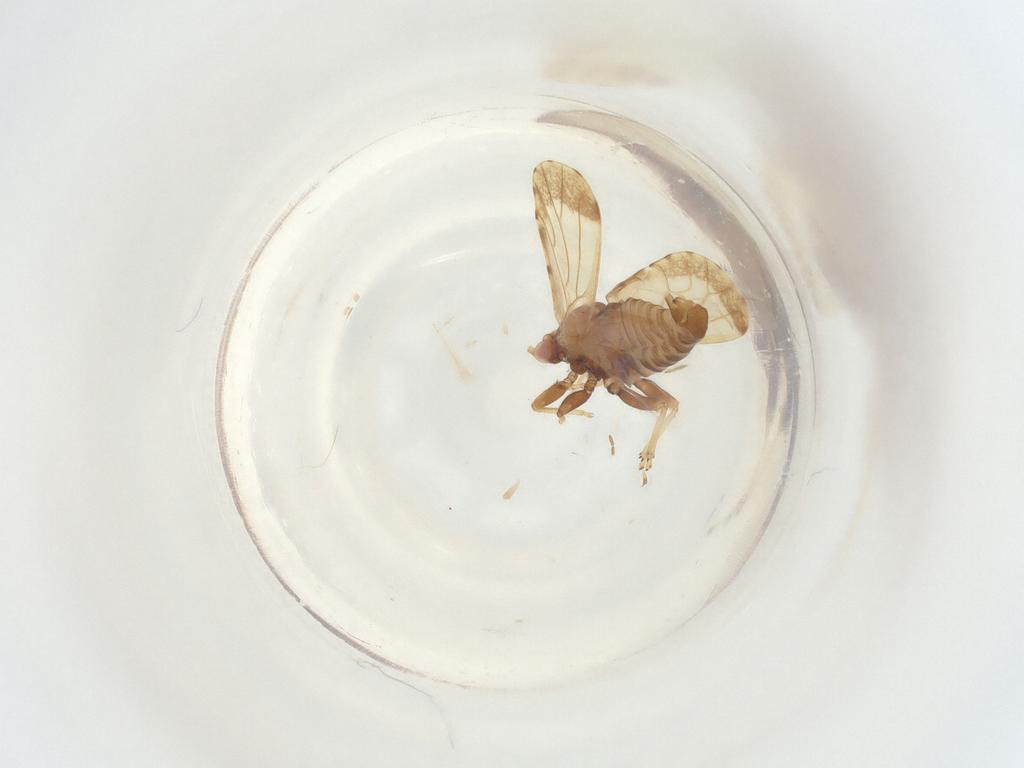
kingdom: Animalia
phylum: Arthropoda
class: Insecta
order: Diptera
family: Sciaridae
